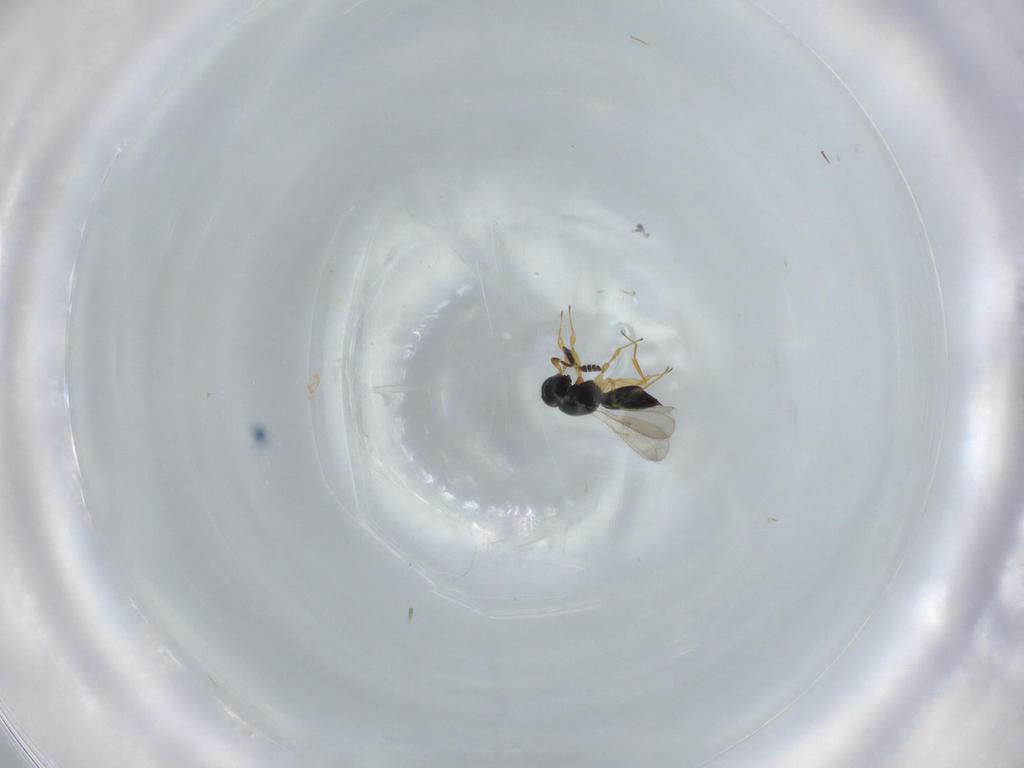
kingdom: Animalia
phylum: Arthropoda
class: Insecta
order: Hymenoptera
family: Scelionidae
